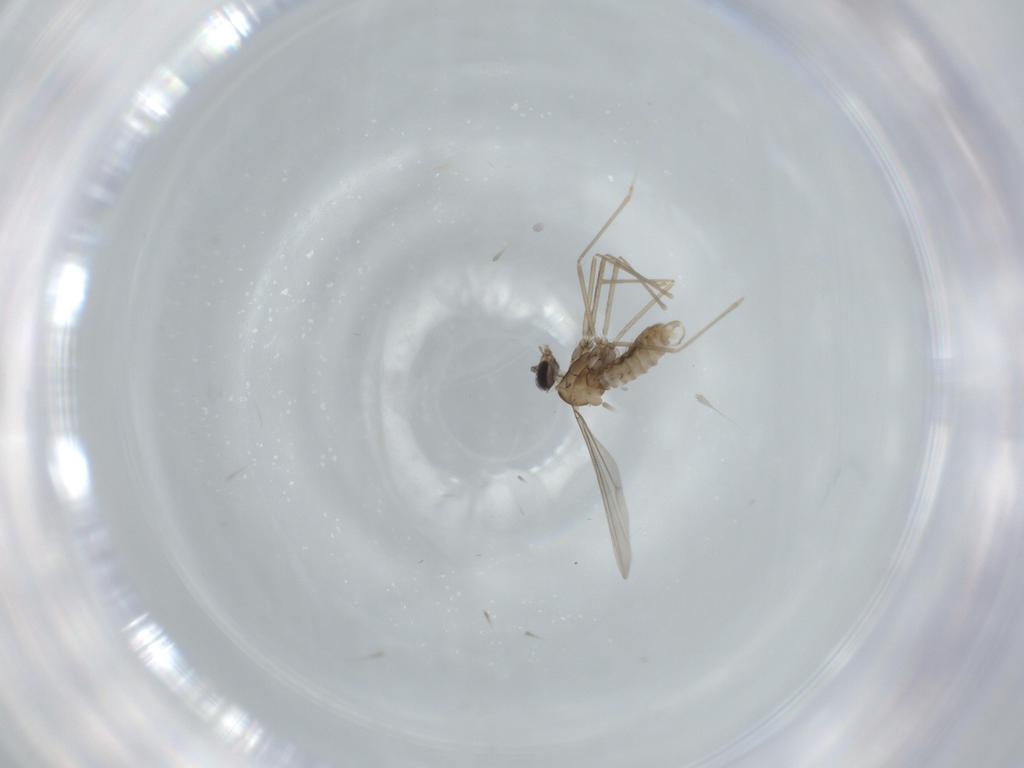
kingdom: Animalia
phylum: Arthropoda
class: Insecta
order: Diptera
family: Cecidomyiidae
